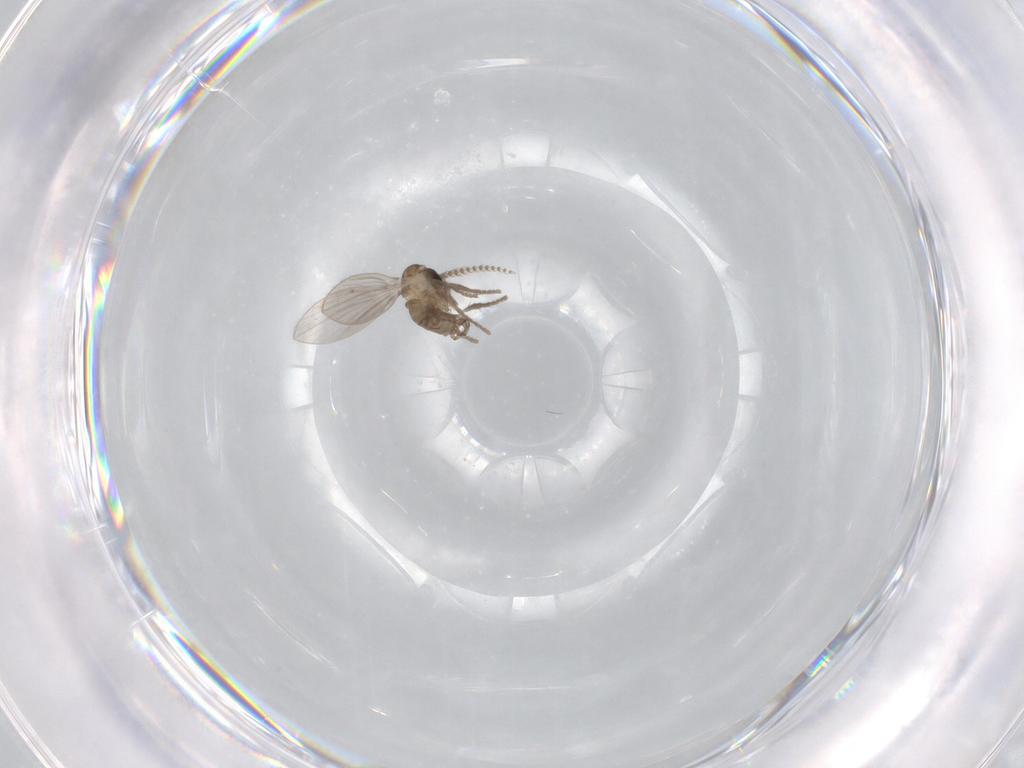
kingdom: Animalia
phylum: Arthropoda
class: Insecta
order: Diptera
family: Psychodidae
